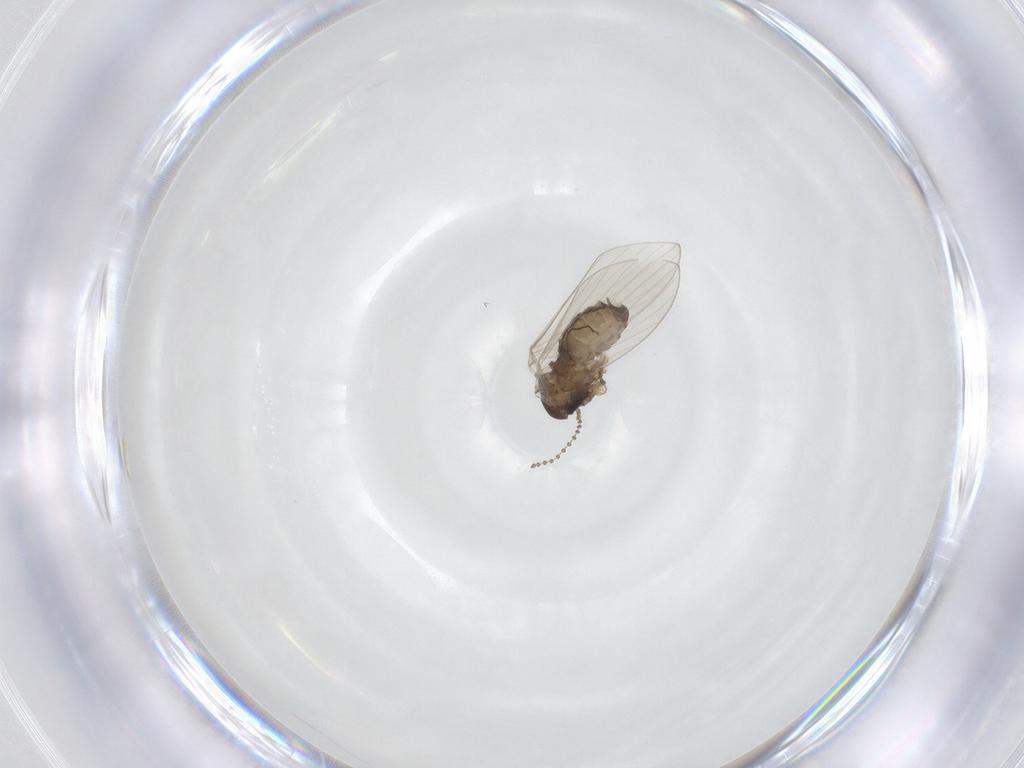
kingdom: Animalia
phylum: Arthropoda
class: Insecta
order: Diptera
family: Psychodidae
